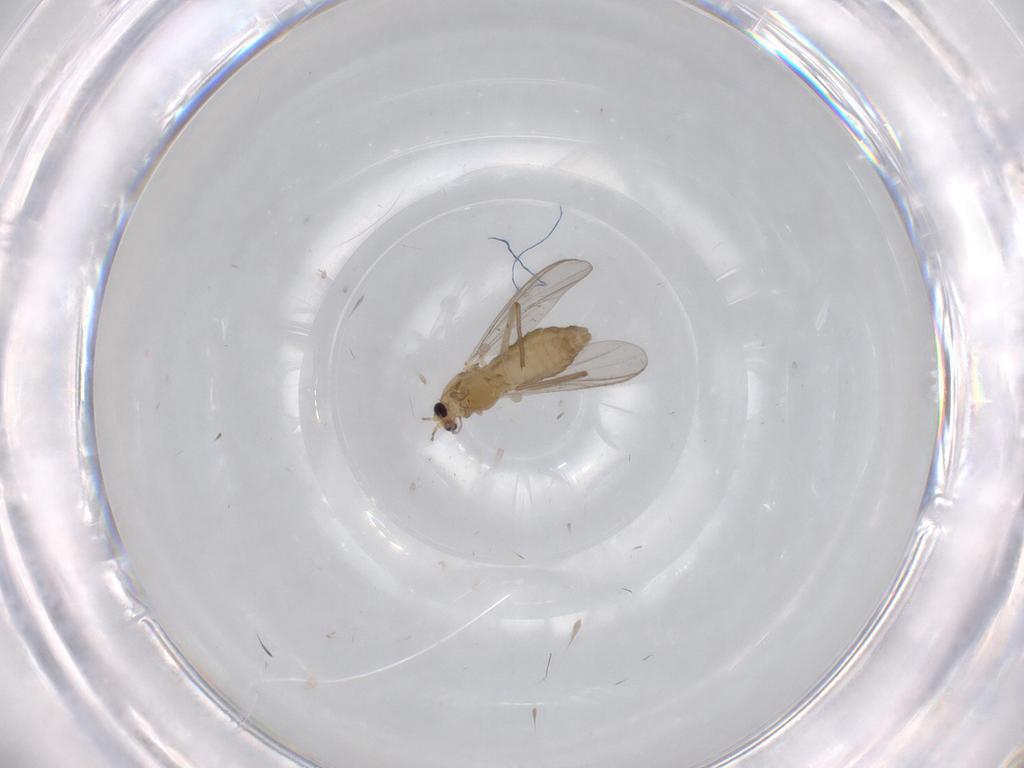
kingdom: Animalia
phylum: Arthropoda
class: Insecta
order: Diptera
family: Chironomidae
